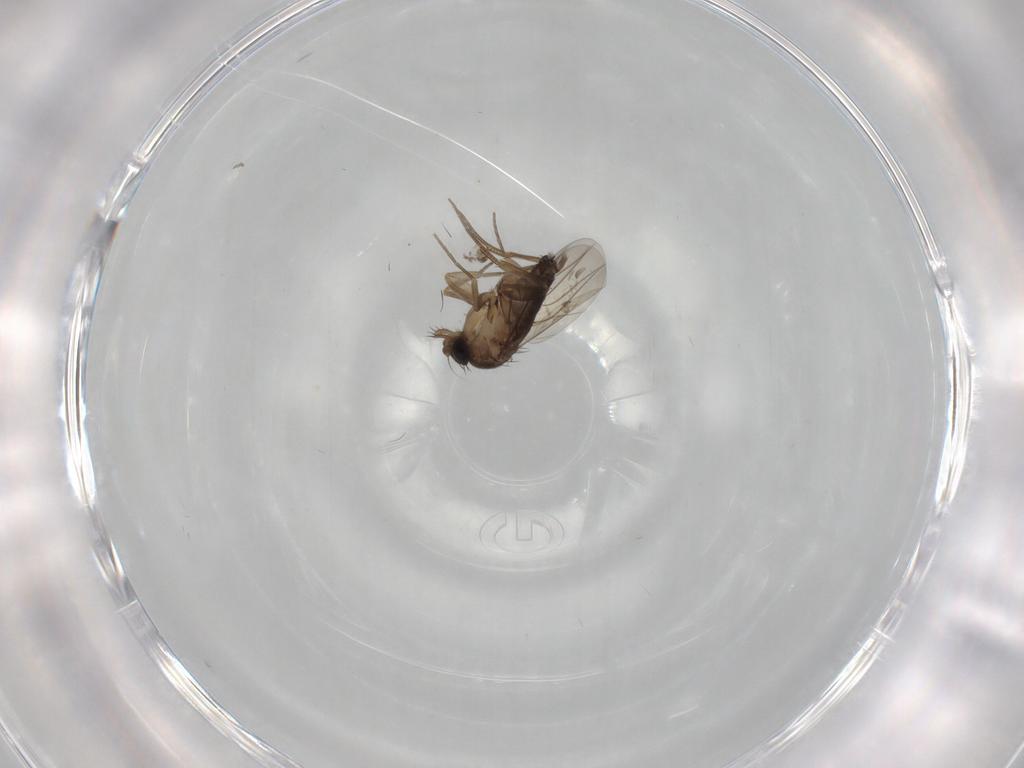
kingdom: Animalia
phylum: Arthropoda
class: Insecta
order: Diptera
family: Phoridae
